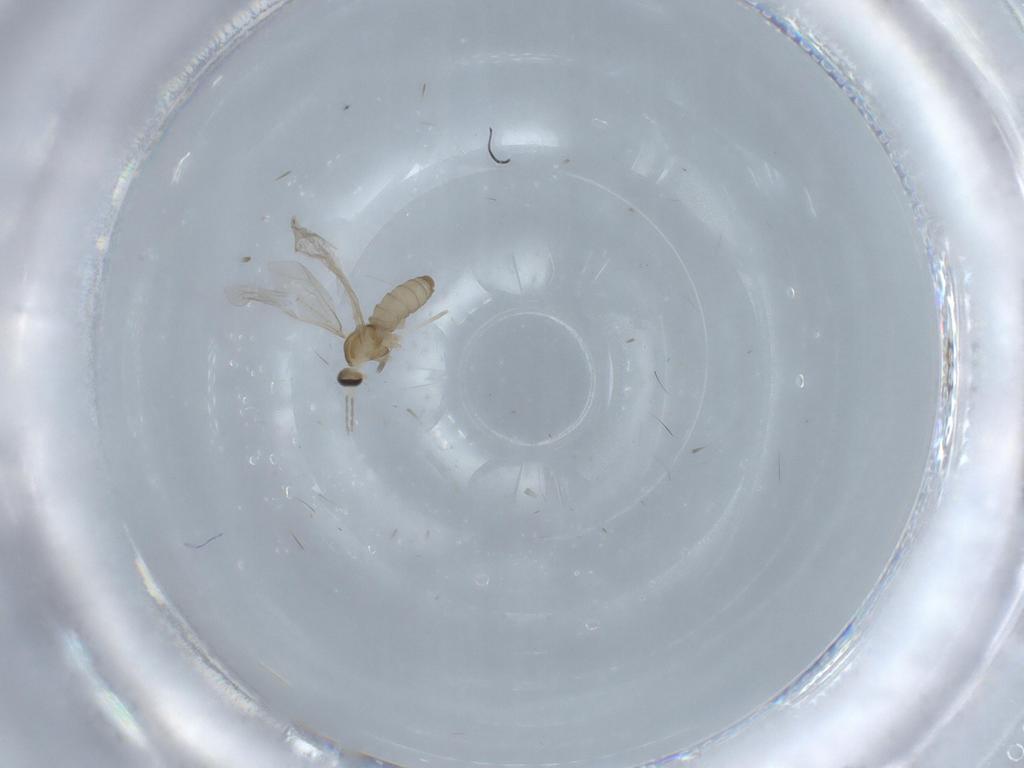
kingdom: Animalia
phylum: Arthropoda
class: Insecta
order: Diptera
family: Cecidomyiidae
